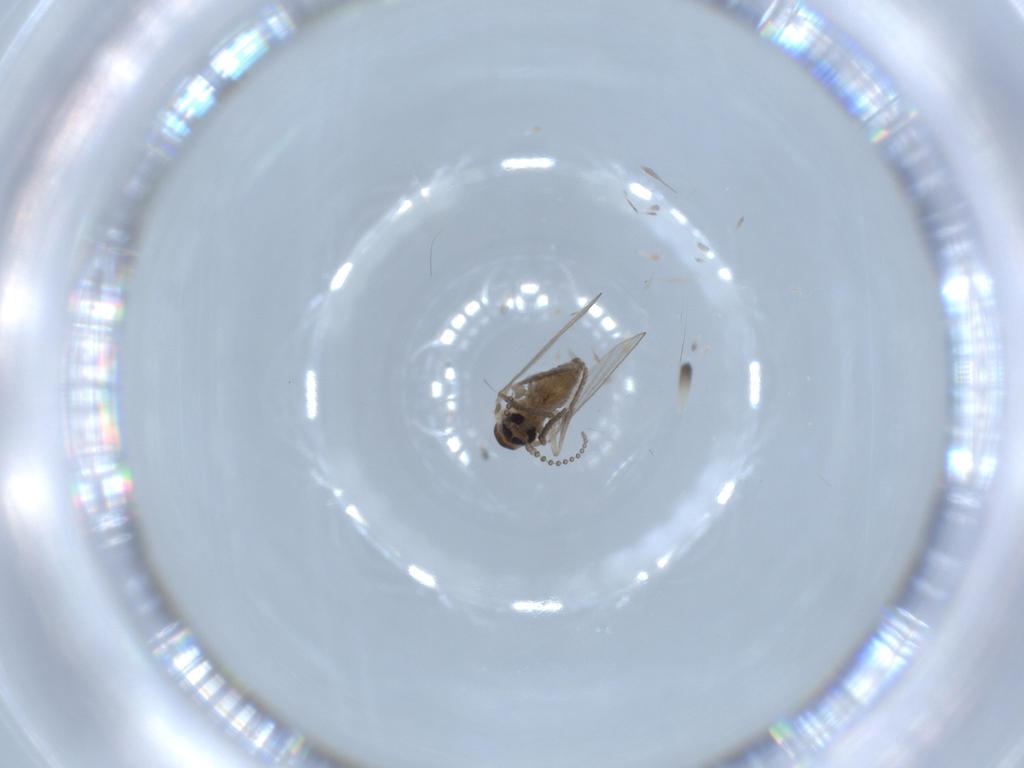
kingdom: Animalia
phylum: Arthropoda
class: Insecta
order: Diptera
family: Psychodidae
